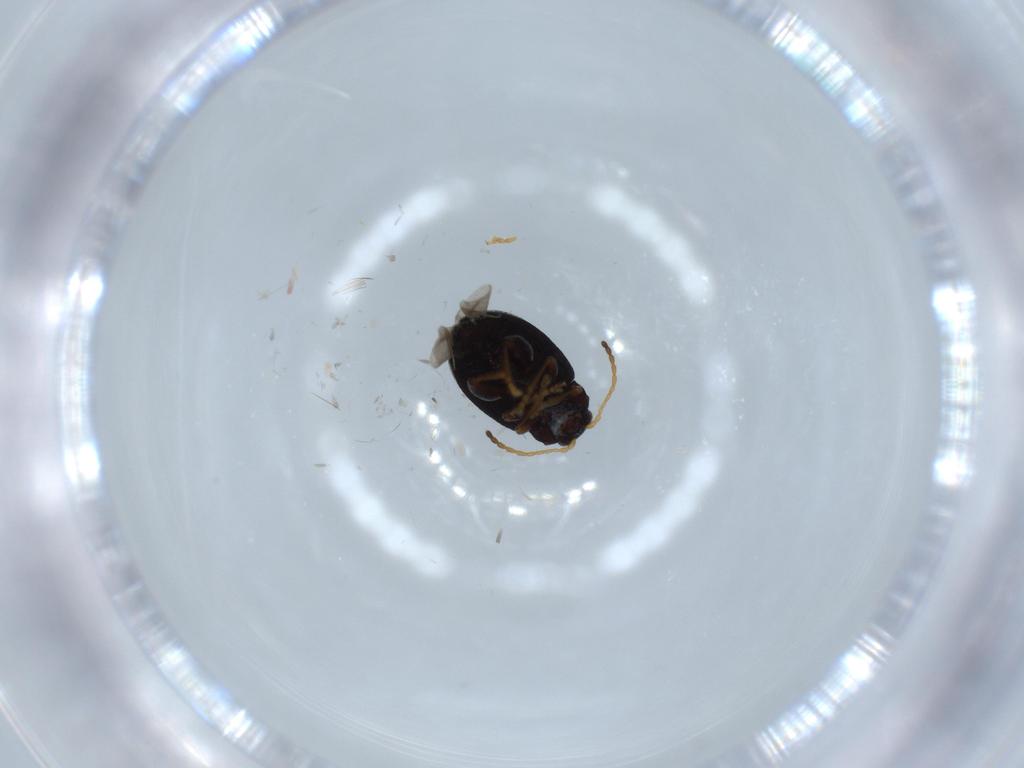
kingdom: Animalia
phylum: Arthropoda
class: Insecta
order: Coleoptera
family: Chrysomelidae
